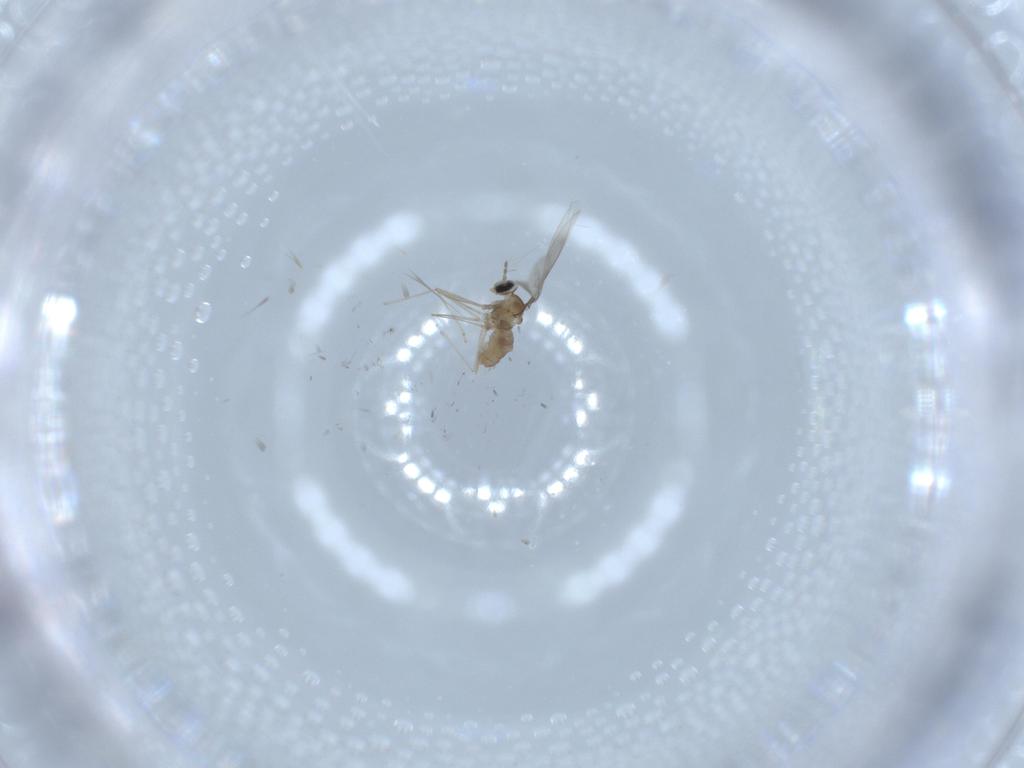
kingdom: Animalia
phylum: Arthropoda
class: Insecta
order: Diptera
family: Cecidomyiidae
